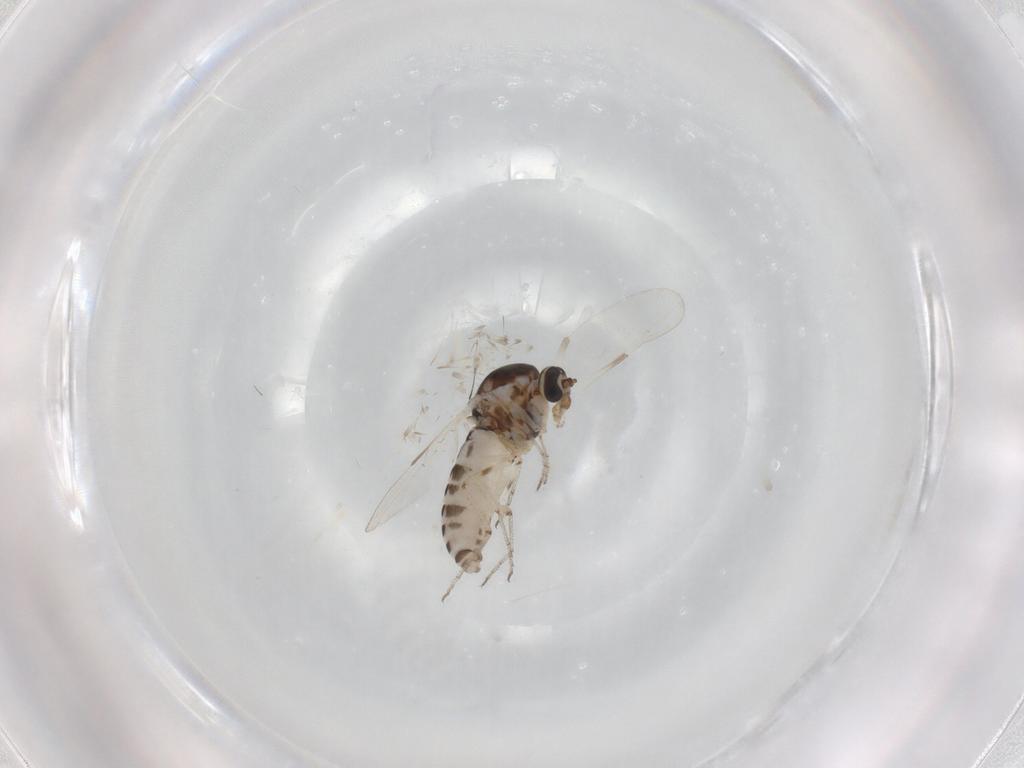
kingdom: Animalia
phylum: Arthropoda
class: Insecta
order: Diptera
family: Ceratopogonidae
